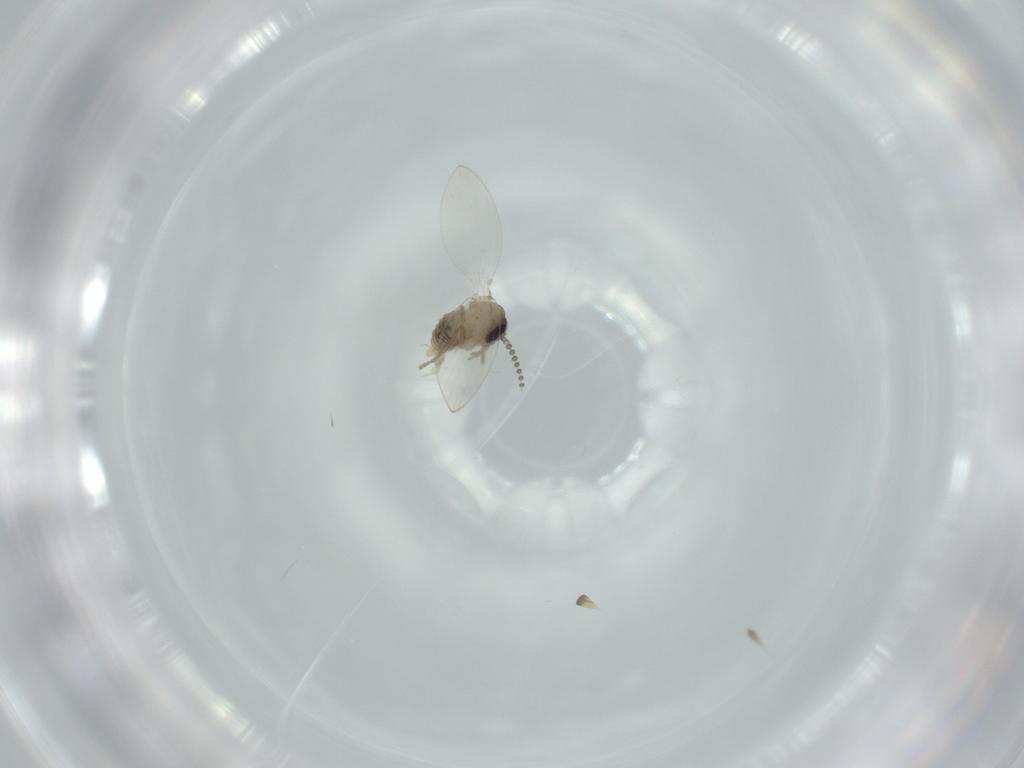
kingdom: Animalia
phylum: Arthropoda
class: Insecta
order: Diptera
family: Psychodidae
